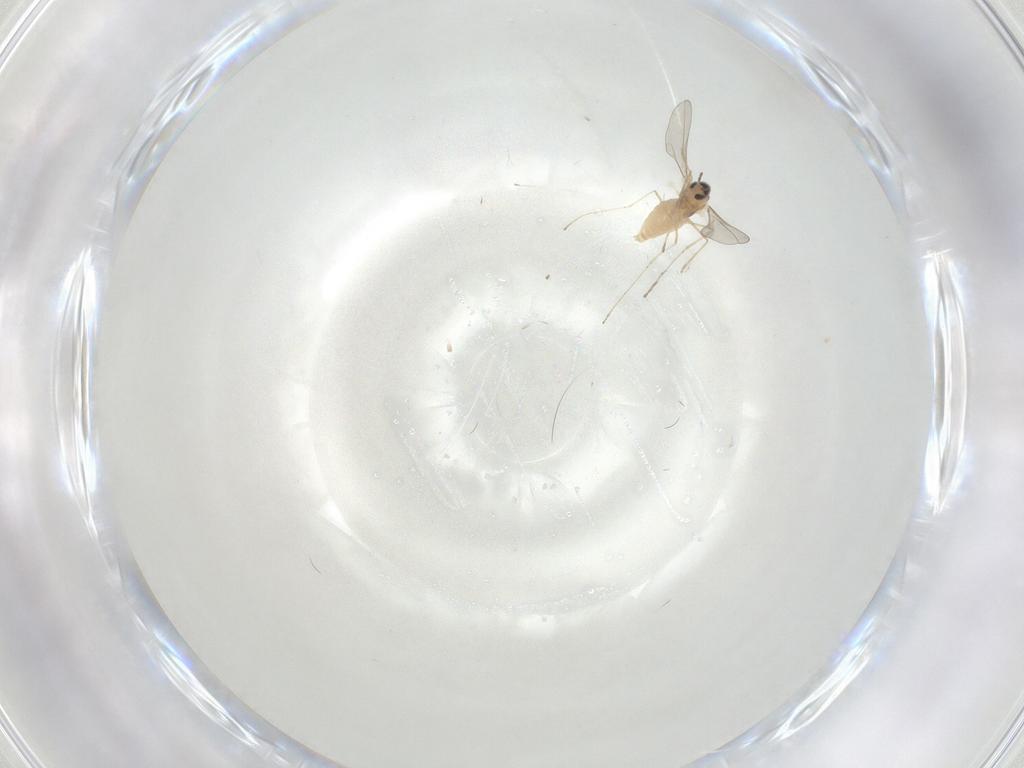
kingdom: Animalia
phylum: Arthropoda
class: Insecta
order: Diptera
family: Cecidomyiidae
